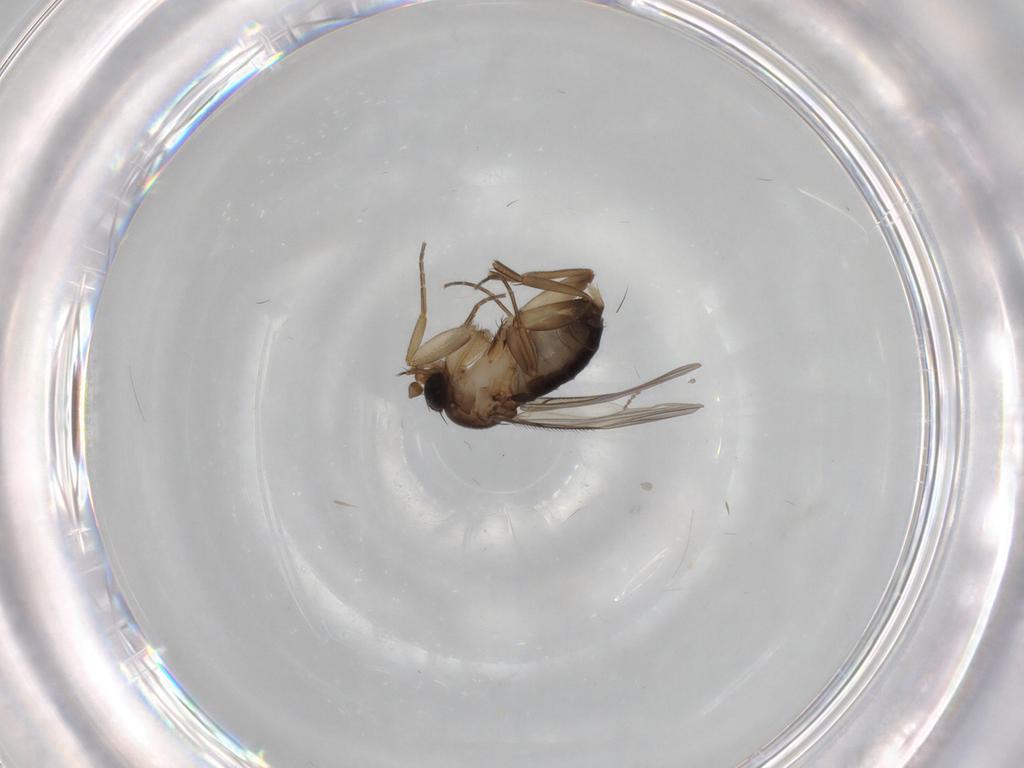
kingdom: Animalia
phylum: Arthropoda
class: Insecta
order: Diptera
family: Phoridae
